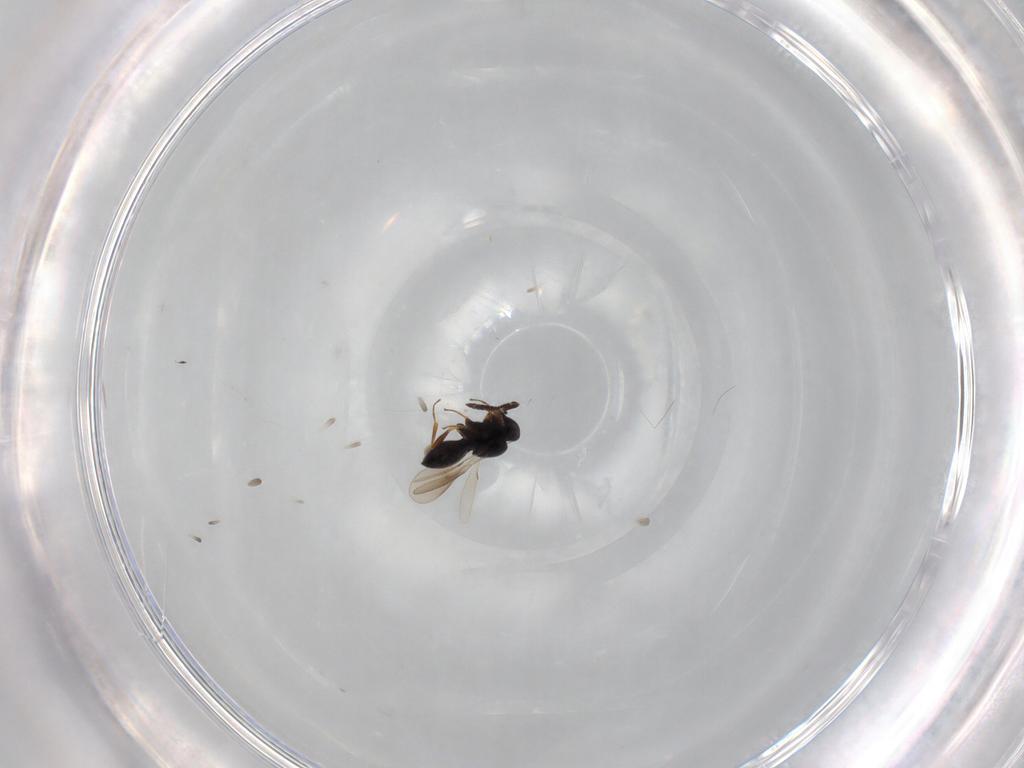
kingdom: Animalia
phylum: Arthropoda
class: Insecta
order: Hymenoptera
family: Scelionidae
